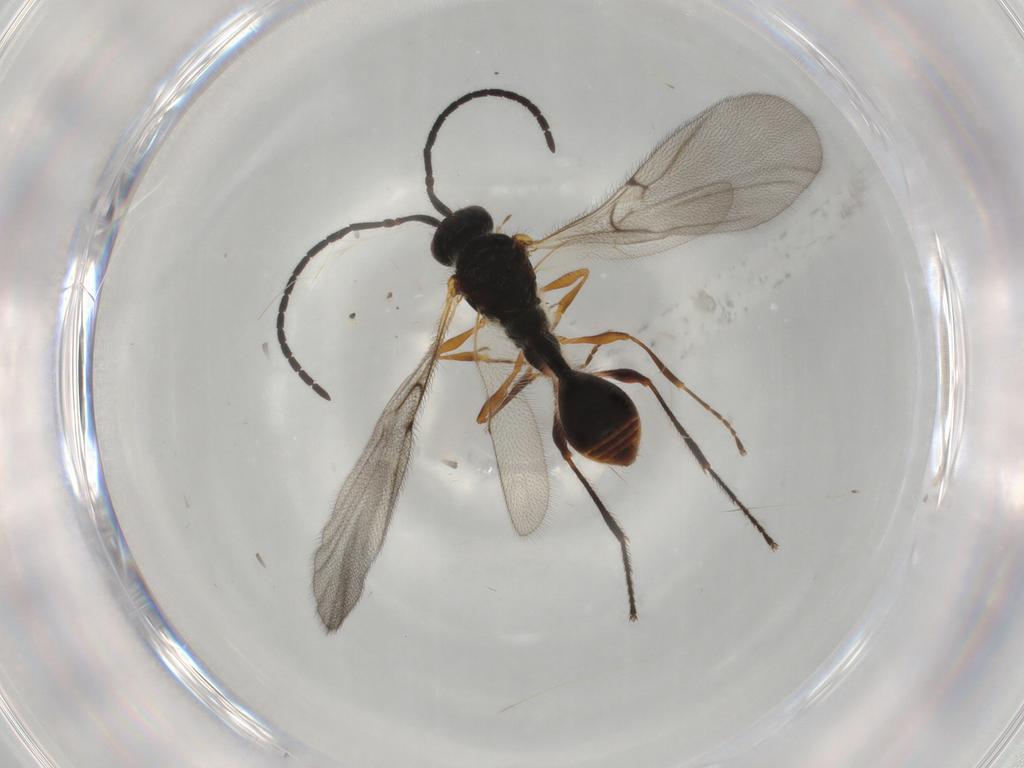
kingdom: Animalia
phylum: Arthropoda
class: Insecta
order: Hymenoptera
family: Diapriidae
